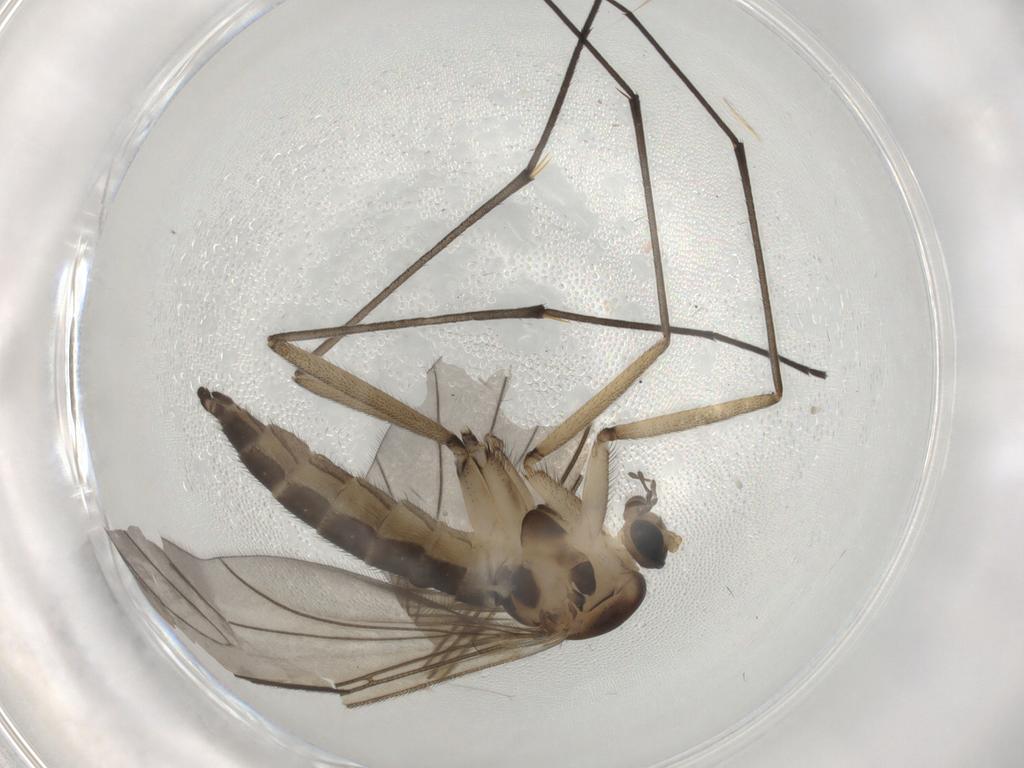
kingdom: Animalia
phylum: Arthropoda
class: Insecta
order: Diptera
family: Sciaridae
